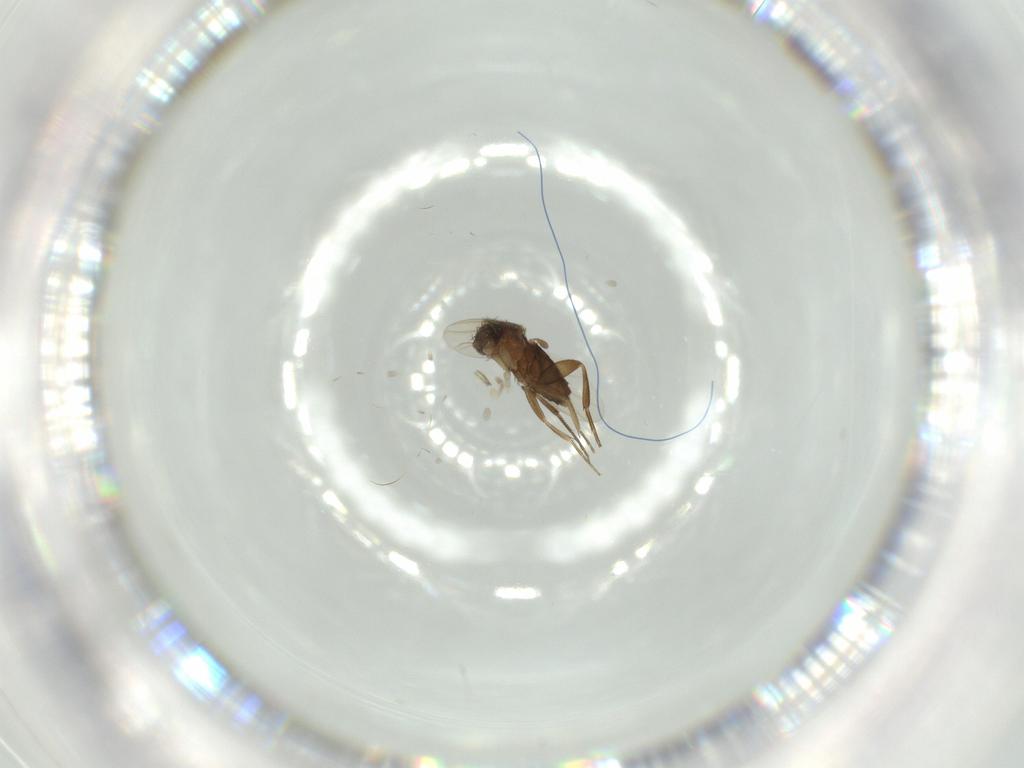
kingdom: Animalia
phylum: Arthropoda
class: Insecta
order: Diptera
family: Phoridae
